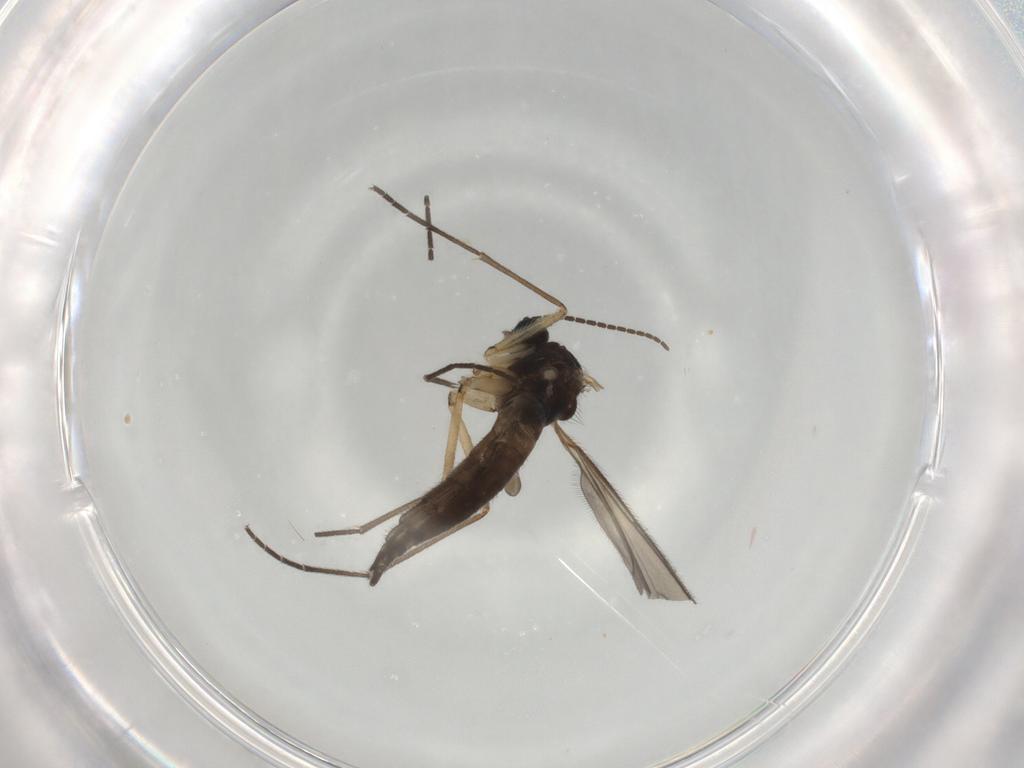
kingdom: Animalia
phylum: Arthropoda
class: Insecta
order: Diptera
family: Sciaridae
